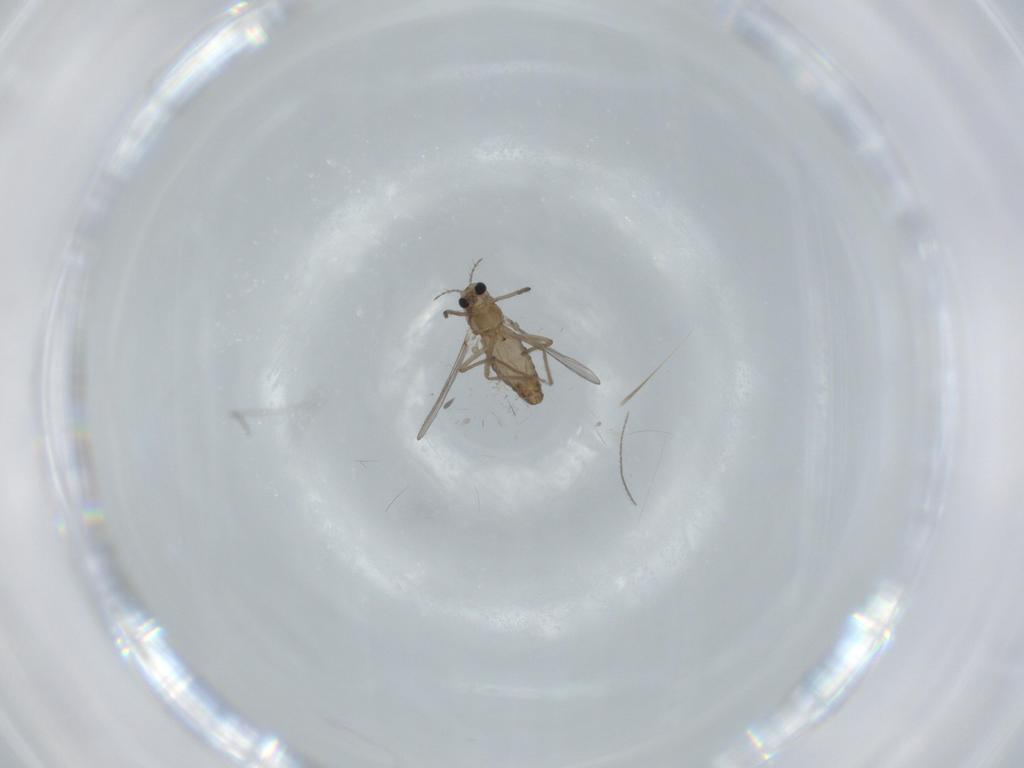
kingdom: Animalia
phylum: Arthropoda
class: Insecta
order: Diptera
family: Chironomidae
